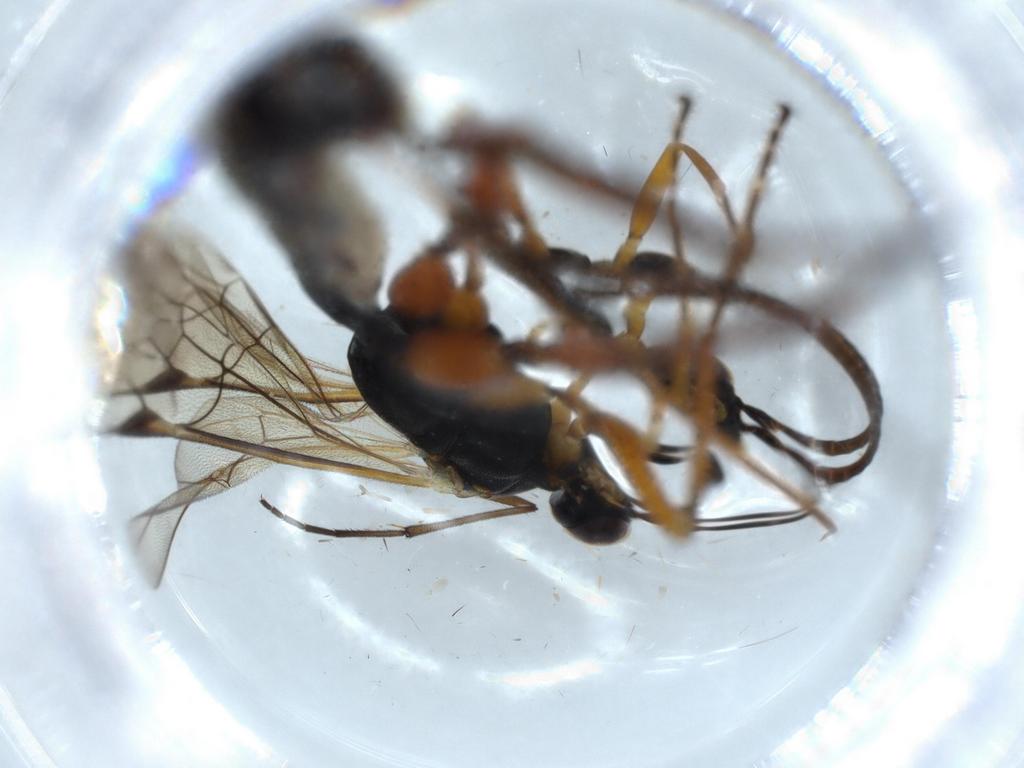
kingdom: Animalia
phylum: Arthropoda
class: Insecta
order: Hymenoptera
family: Ichneumonidae
